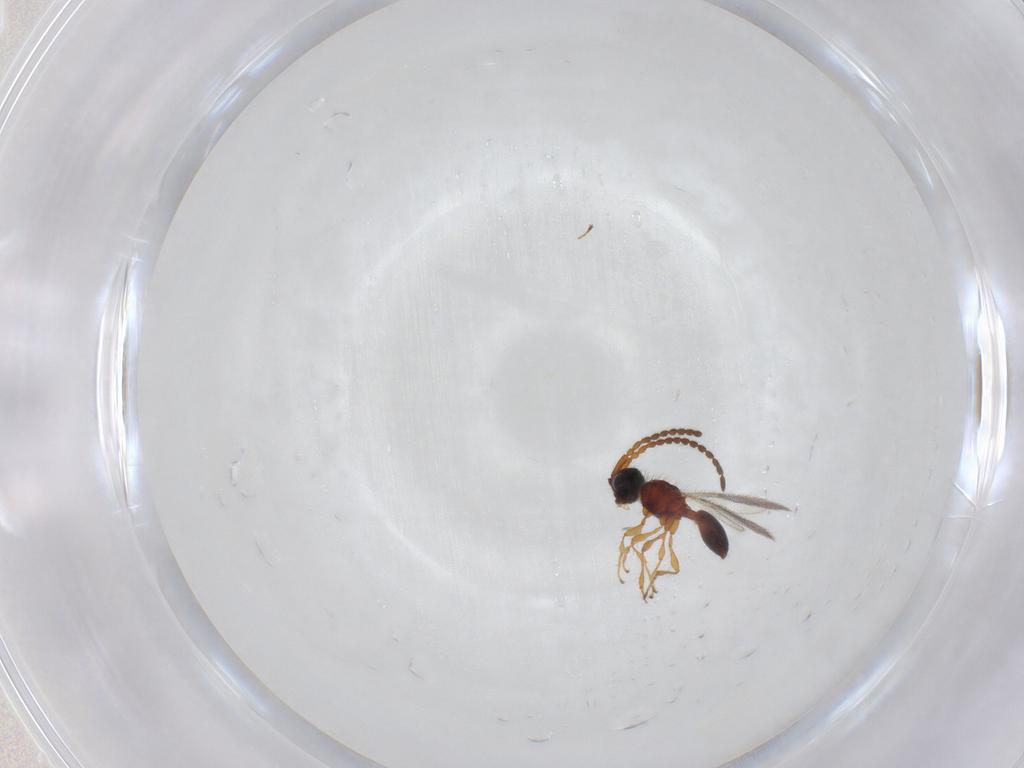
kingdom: Animalia
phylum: Arthropoda
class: Insecta
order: Hymenoptera
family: Diapriidae
